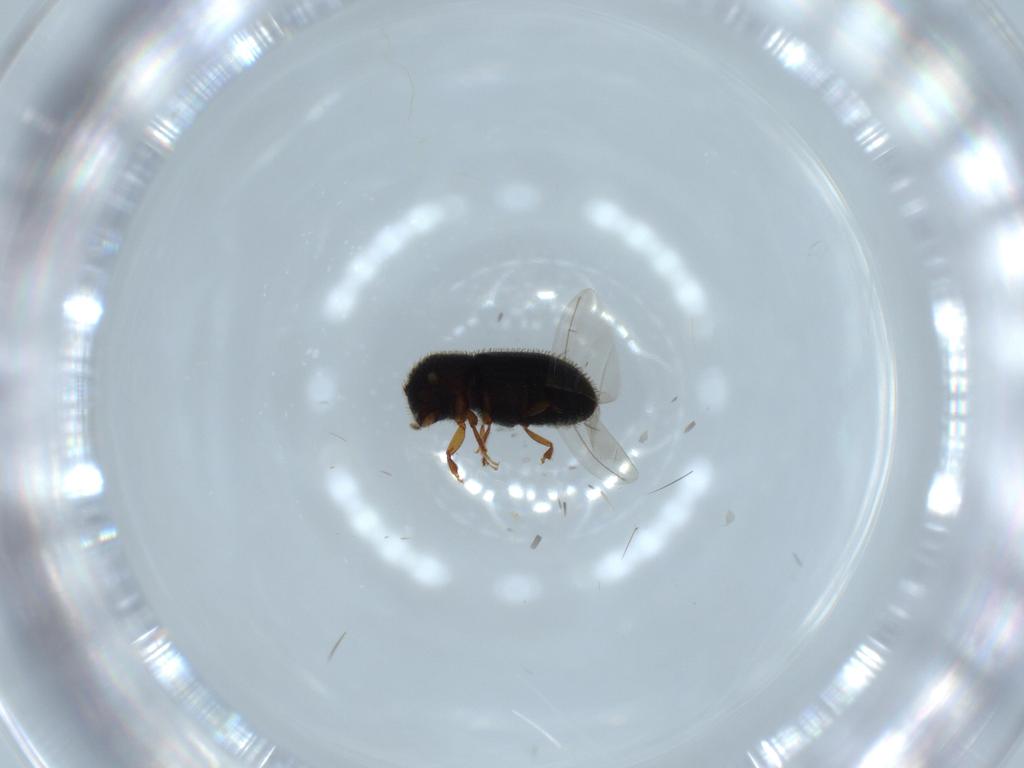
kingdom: Animalia
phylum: Arthropoda
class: Insecta
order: Coleoptera
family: Curculionidae
